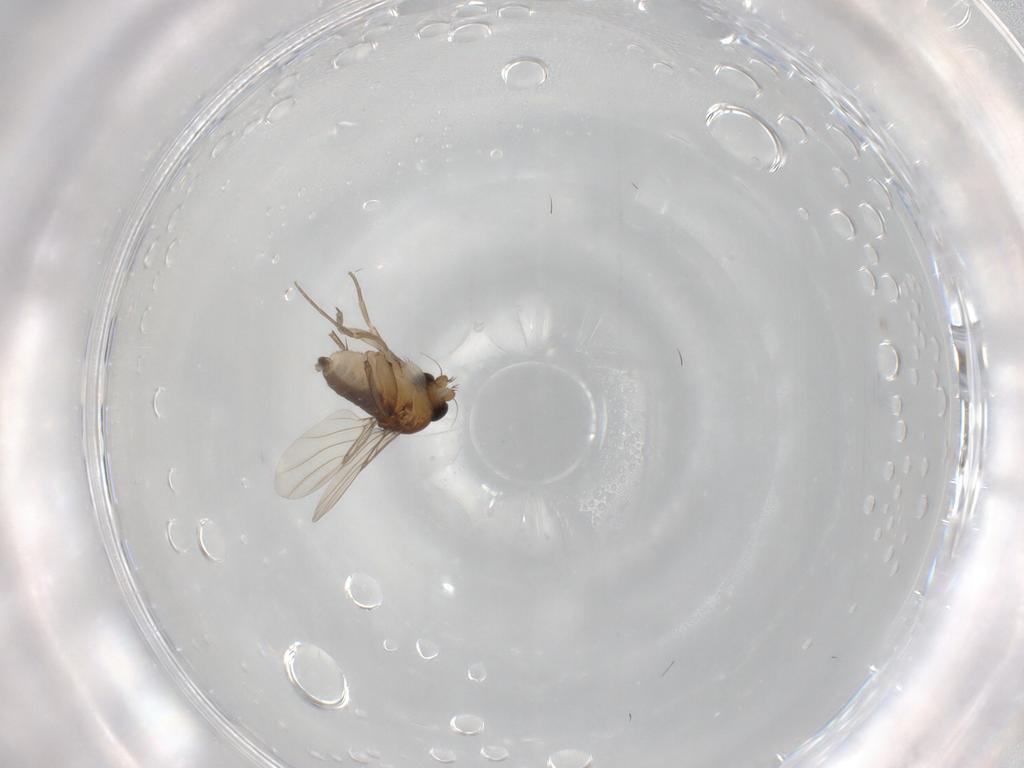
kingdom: Animalia
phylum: Arthropoda
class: Insecta
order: Diptera
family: Phoridae
